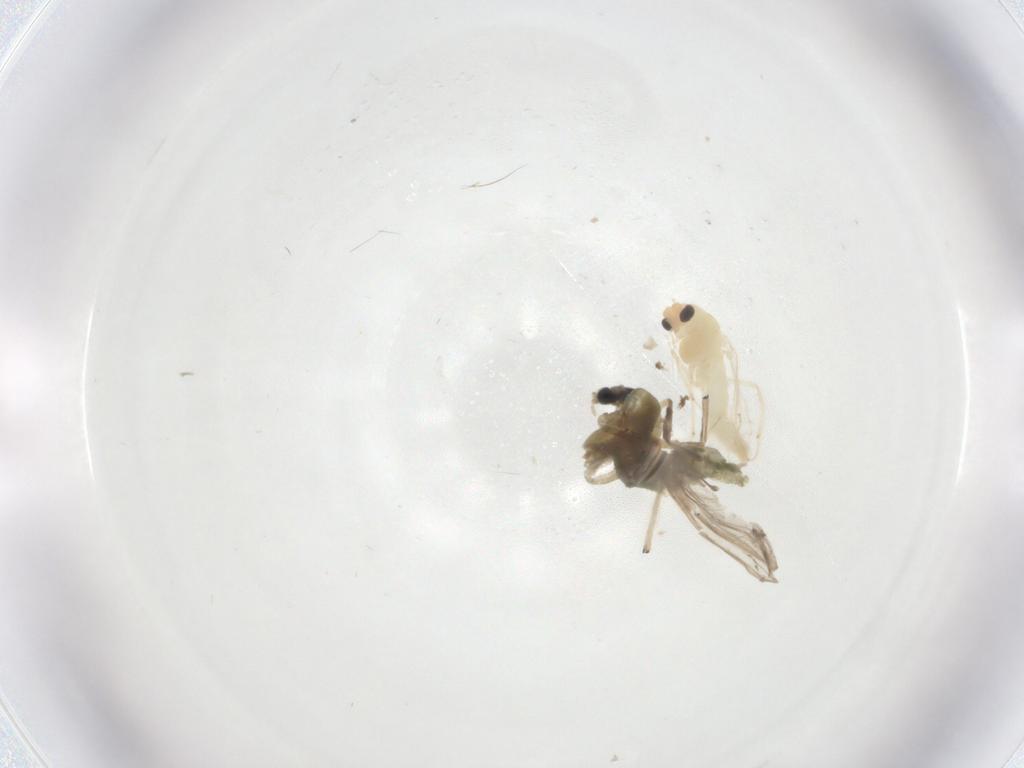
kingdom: Animalia
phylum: Arthropoda
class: Insecta
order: Diptera
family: Chironomidae
